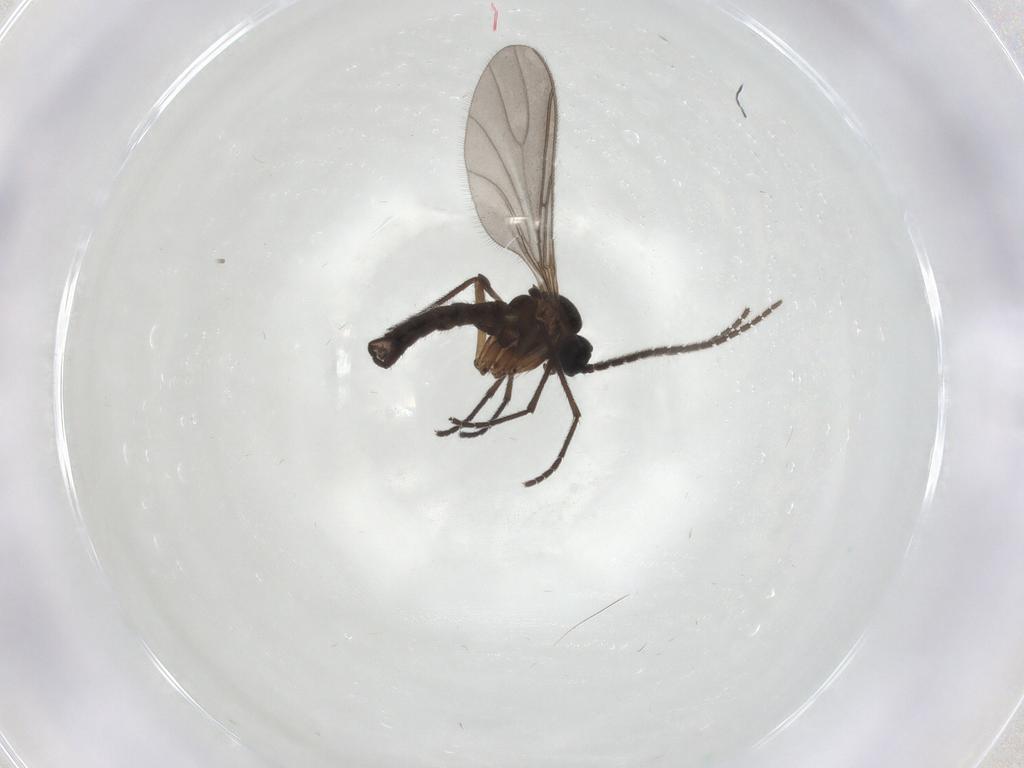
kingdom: Animalia
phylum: Arthropoda
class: Insecta
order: Diptera
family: Sciaridae
